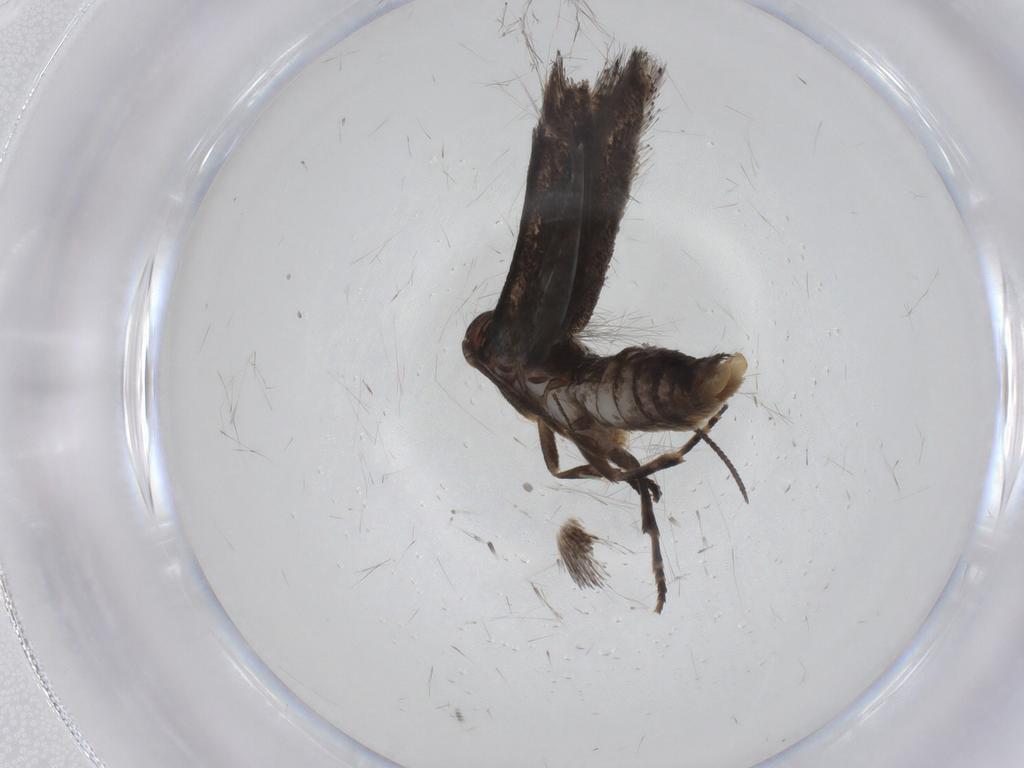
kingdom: Animalia
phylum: Arthropoda
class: Insecta
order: Lepidoptera
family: Elachistidae
